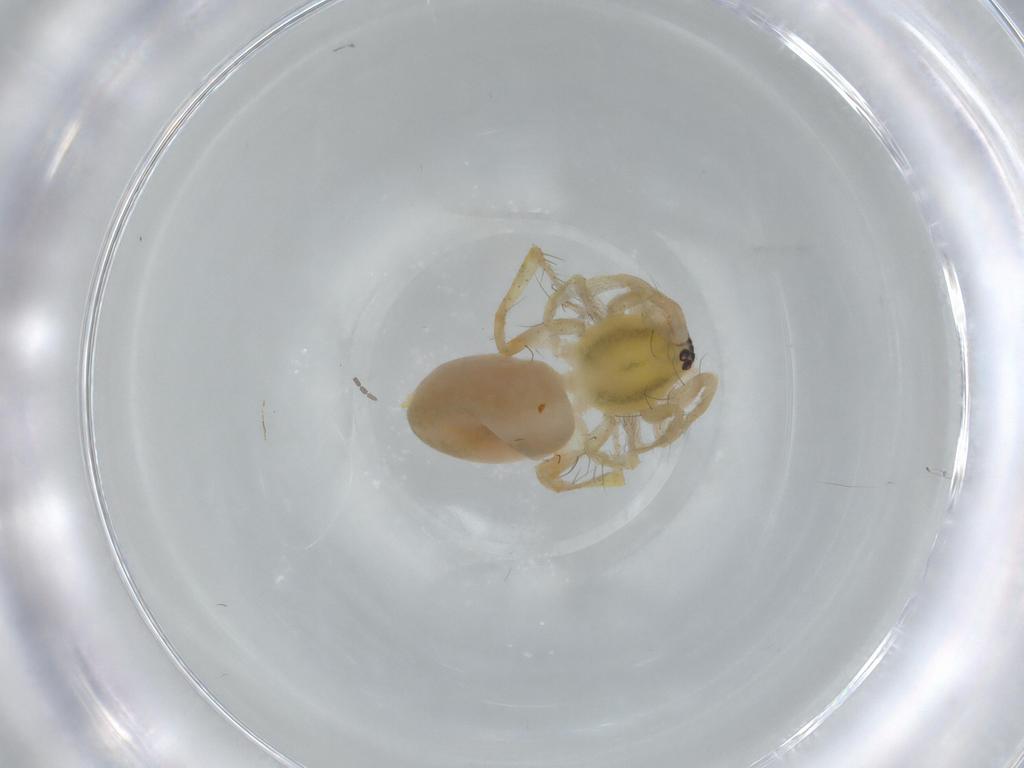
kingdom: Animalia
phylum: Arthropoda
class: Arachnida
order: Araneae
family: Anyphaenidae
